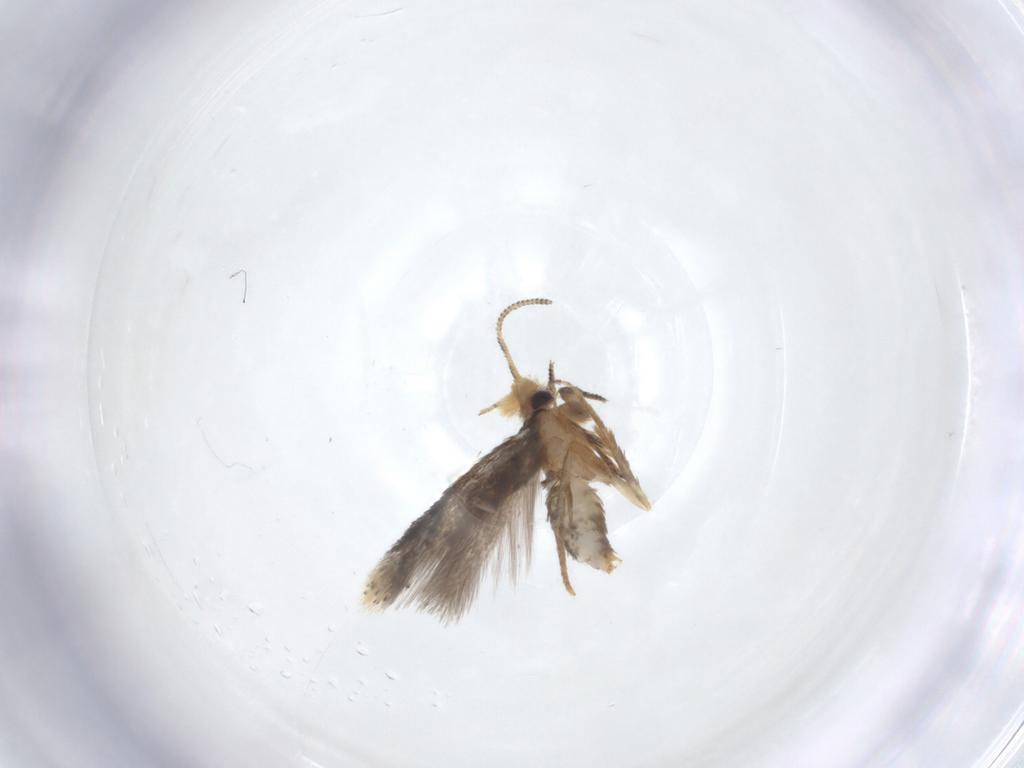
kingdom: Animalia
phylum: Arthropoda
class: Insecta
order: Lepidoptera
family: Nepticulidae
